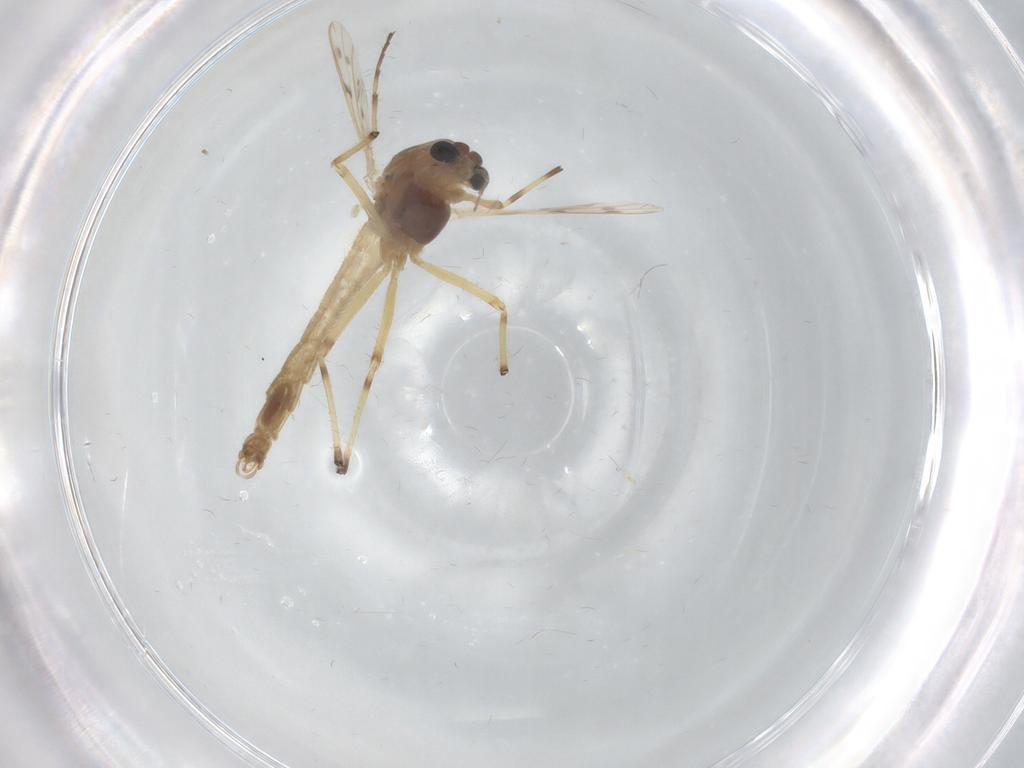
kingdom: Animalia
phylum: Arthropoda
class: Insecta
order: Diptera
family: Chironomidae
